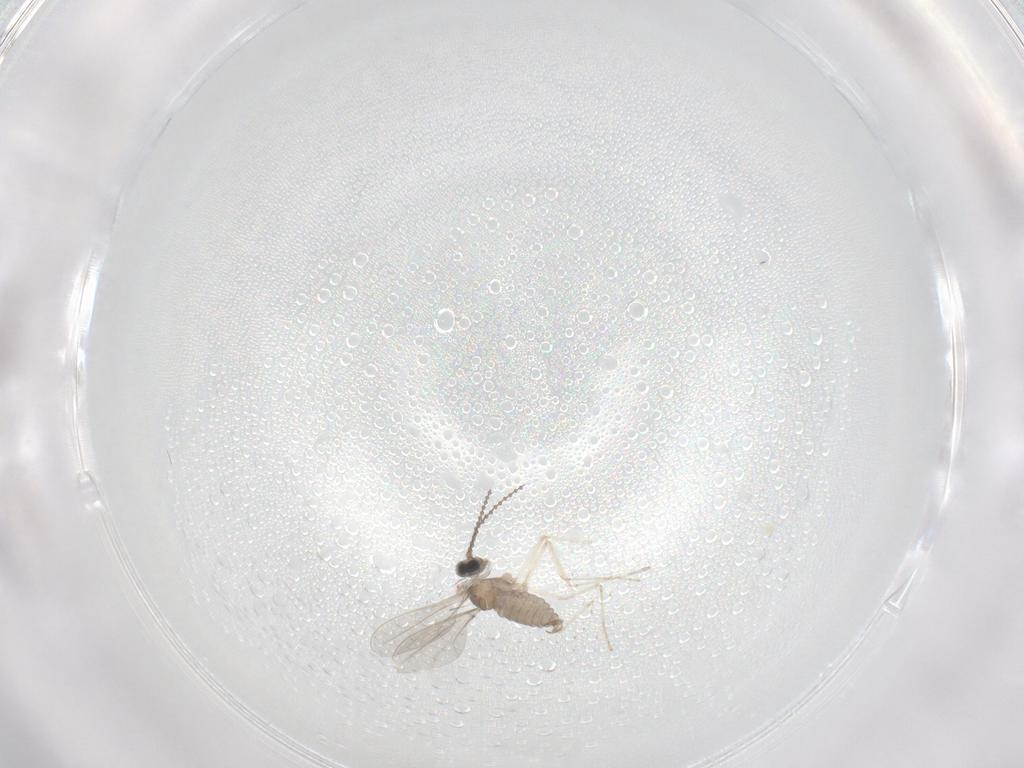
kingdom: Animalia
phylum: Arthropoda
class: Insecta
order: Diptera
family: Cecidomyiidae
